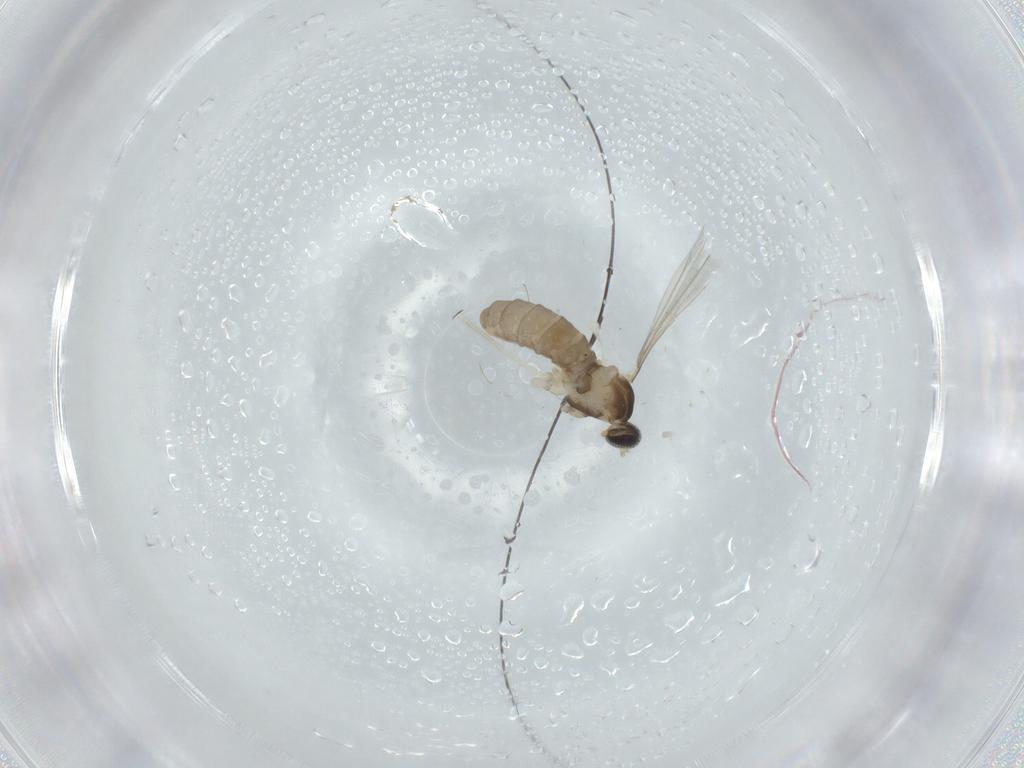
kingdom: Animalia
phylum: Arthropoda
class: Insecta
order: Diptera
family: Cecidomyiidae
